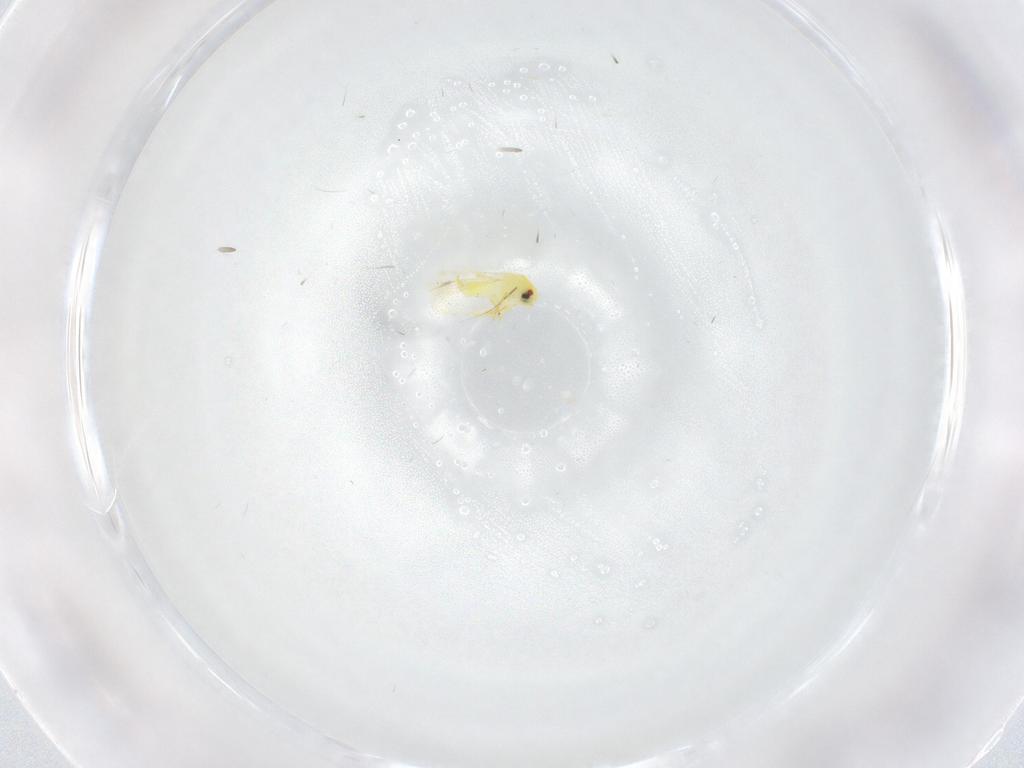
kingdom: Animalia
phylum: Arthropoda
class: Insecta
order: Hemiptera
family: Aleyrodidae
